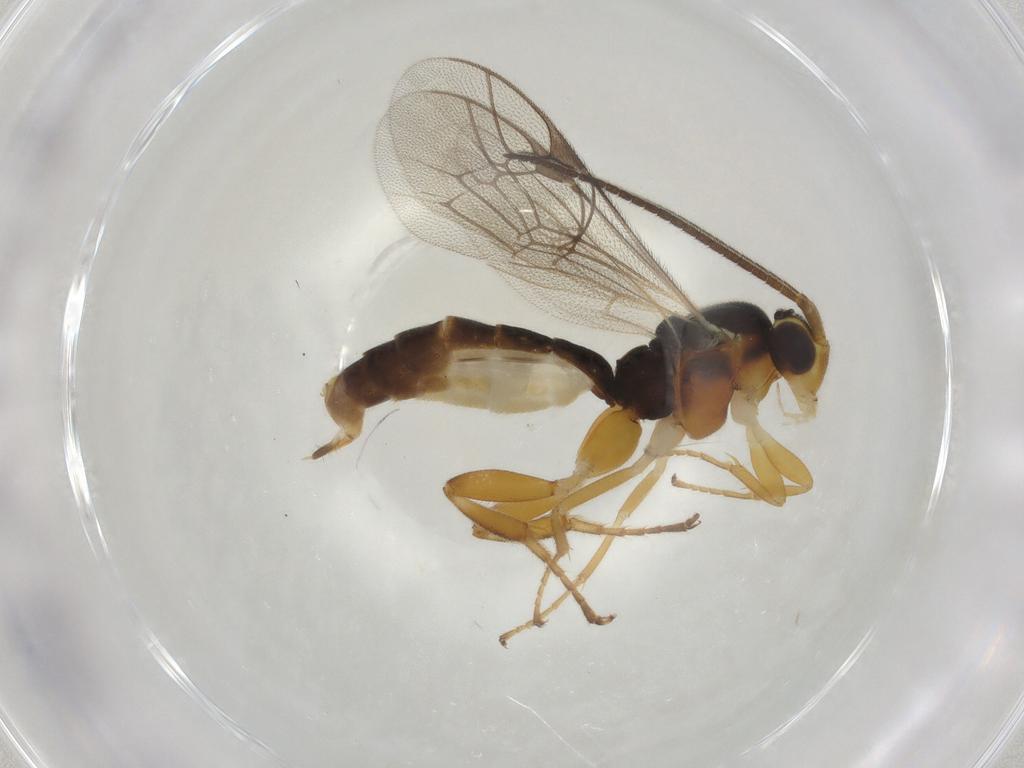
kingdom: Animalia
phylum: Arthropoda
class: Insecta
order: Hymenoptera
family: Ichneumonidae
